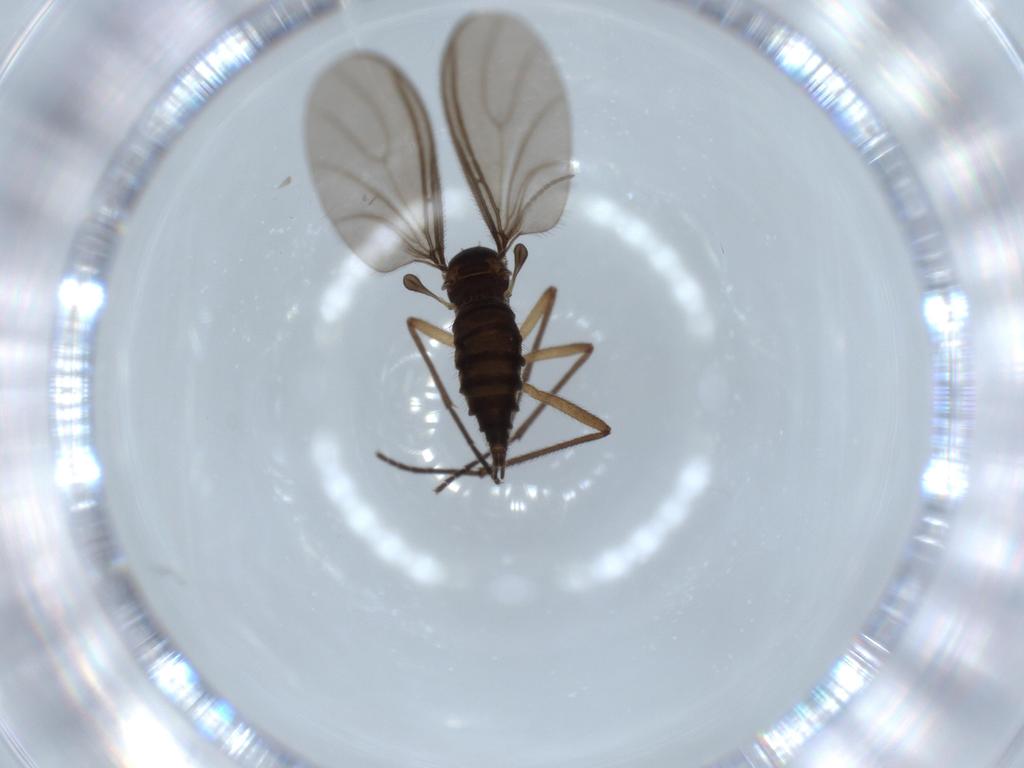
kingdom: Animalia
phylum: Arthropoda
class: Insecta
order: Diptera
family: Sciaridae
